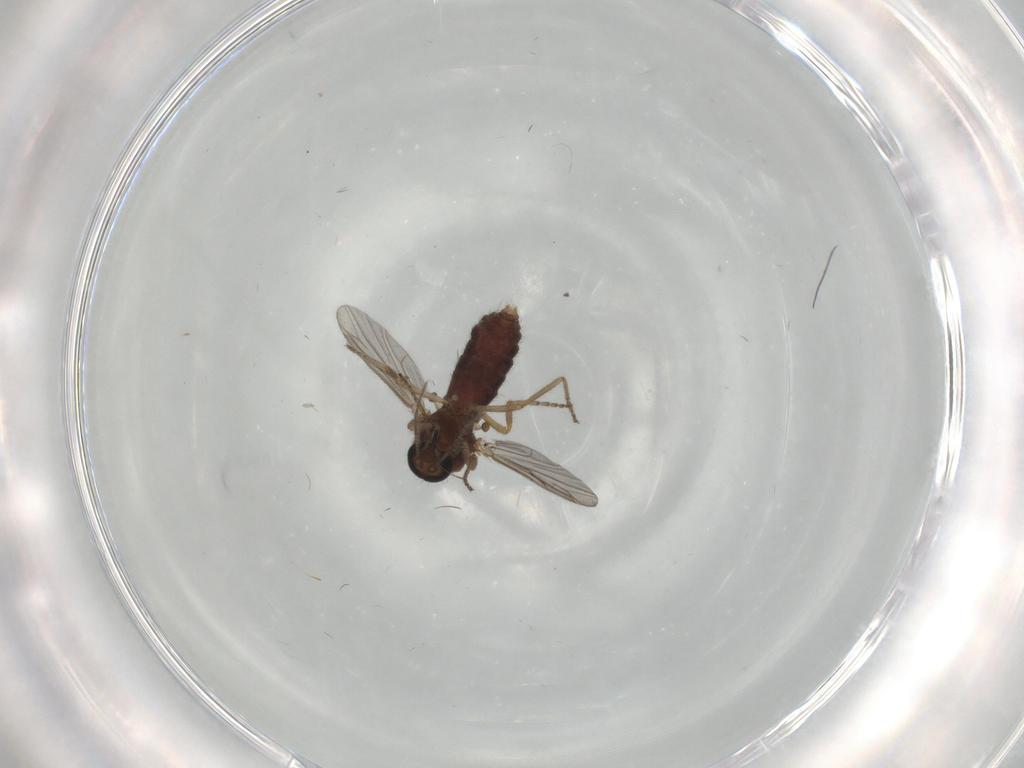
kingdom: Animalia
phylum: Arthropoda
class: Insecta
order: Diptera
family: Ceratopogonidae
